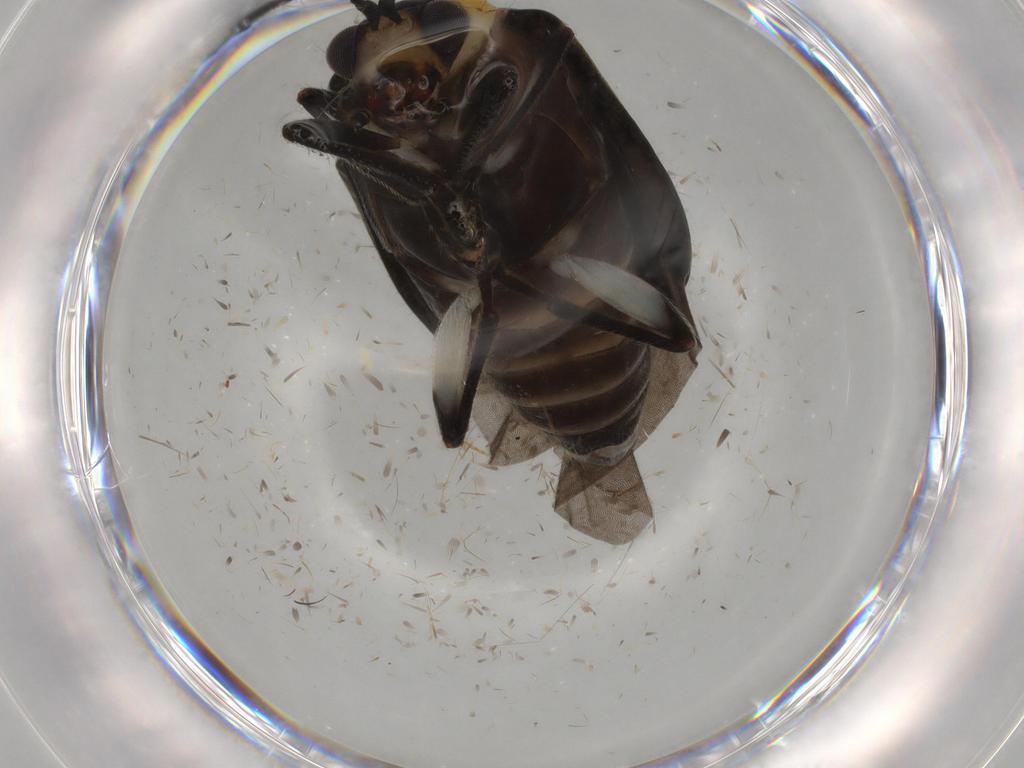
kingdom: Animalia
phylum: Arthropoda
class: Insecta
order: Coleoptera
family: Chrysomelidae
